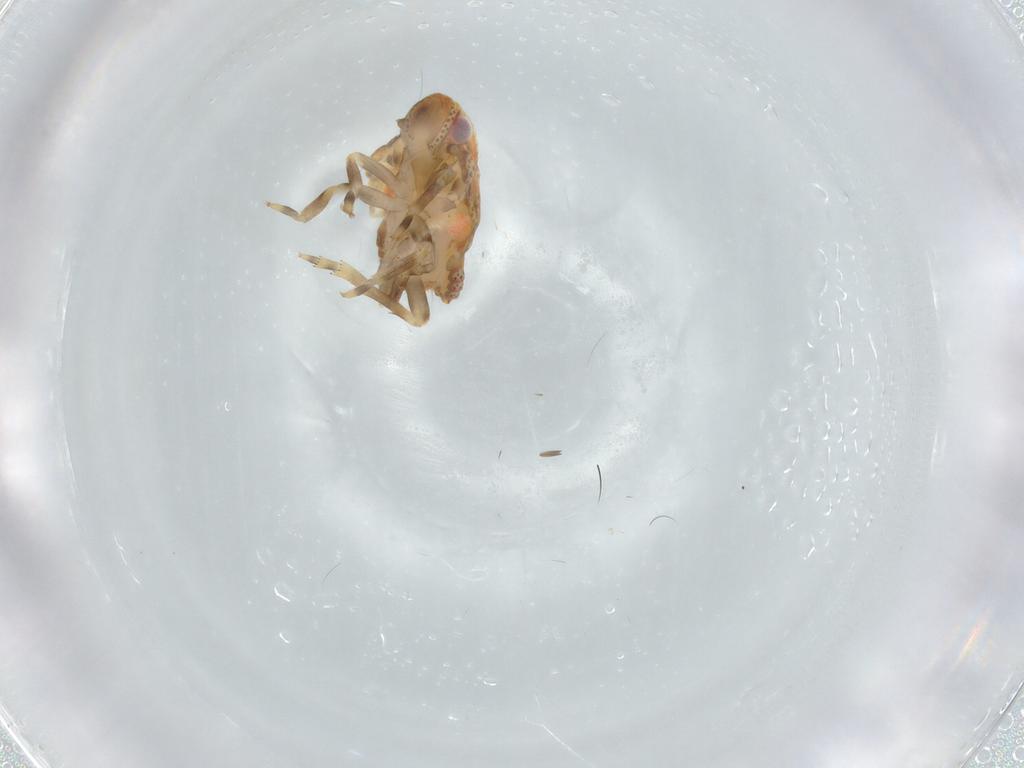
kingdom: Animalia
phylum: Arthropoda
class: Insecta
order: Hemiptera
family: Flatidae
